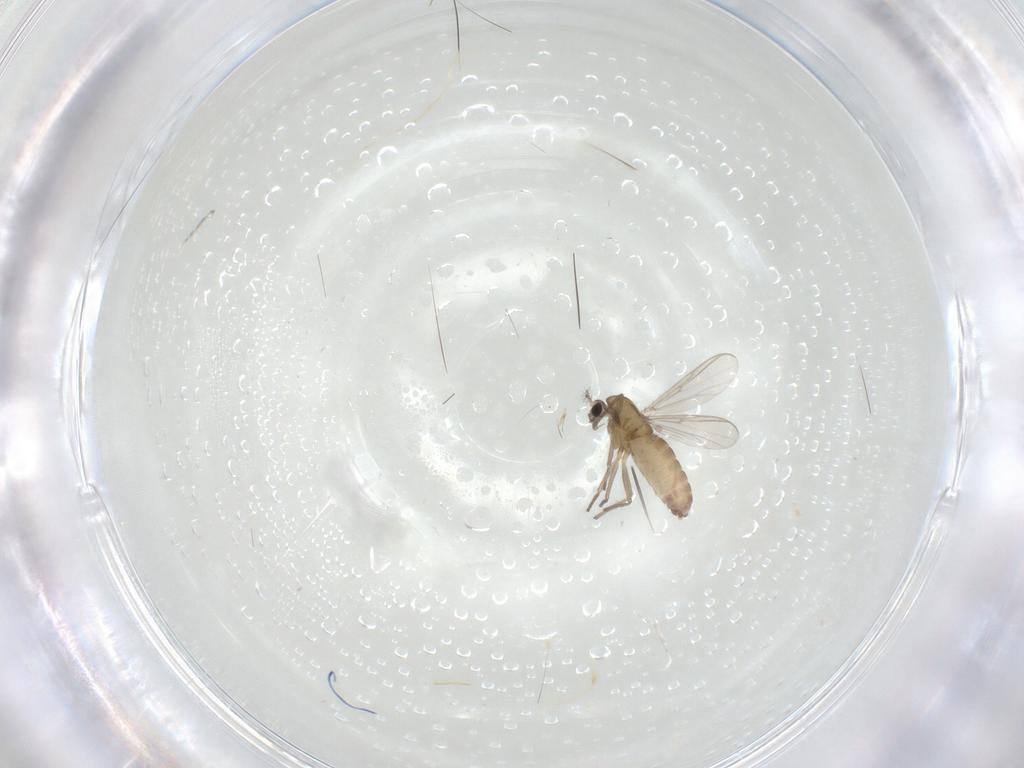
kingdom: Animalia
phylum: Arthropoda
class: Insecta
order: Diptera
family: Chironomidae
